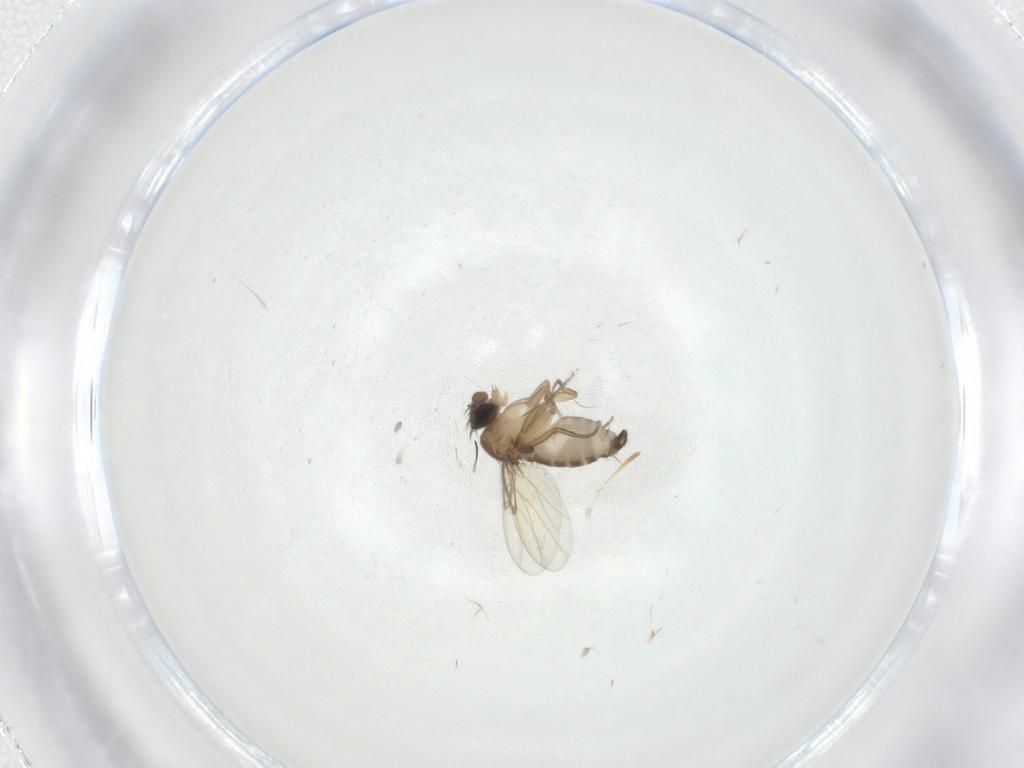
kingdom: Animalia
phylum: Arthropoda
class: Insecta
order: Diptera
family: Phoridae
